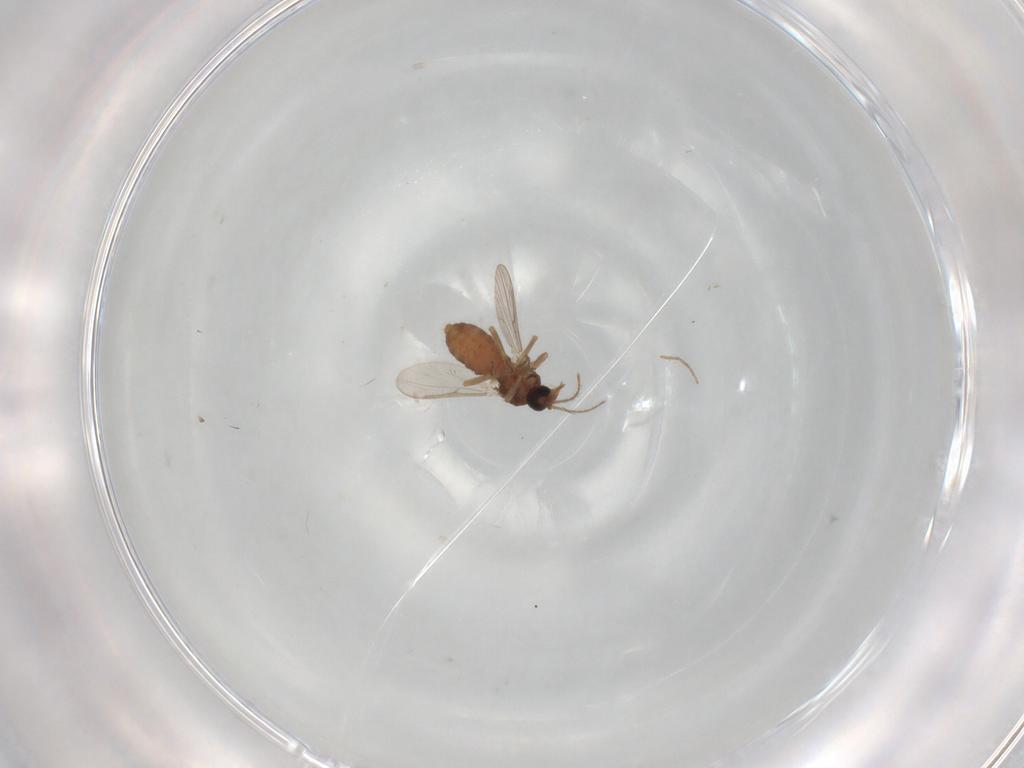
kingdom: Animalia
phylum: Arthropoda
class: Insecta
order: Diptera
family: Ceratopogonidae
